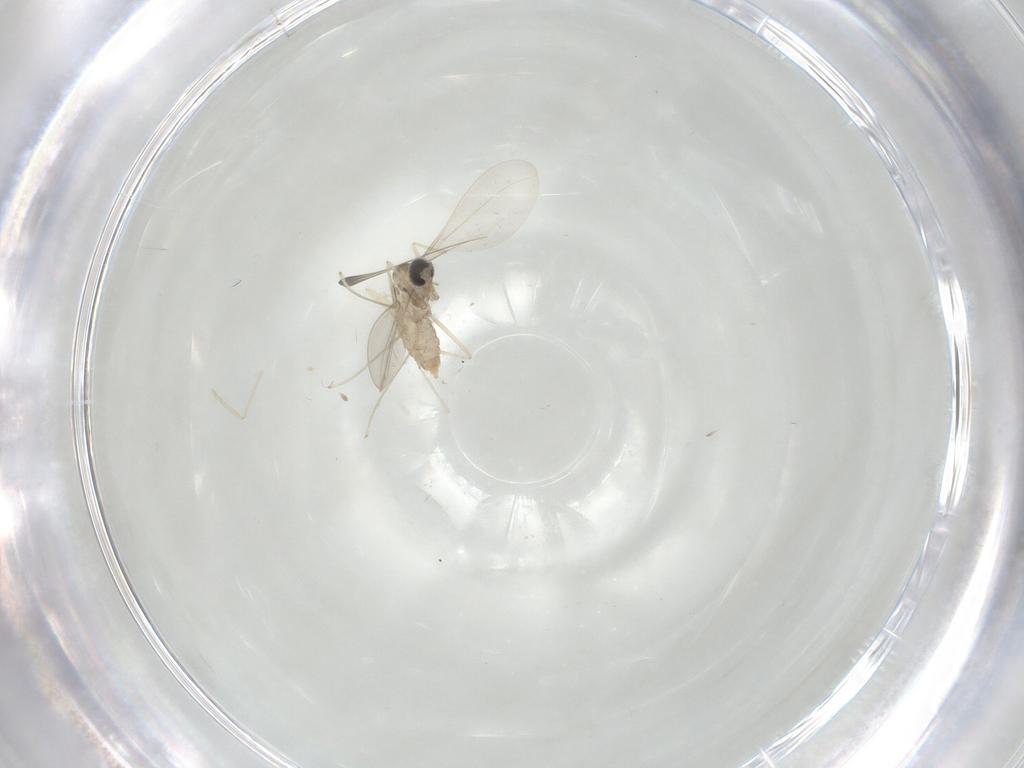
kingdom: Animalia
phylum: Arthropoda
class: Insecta
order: Diptera
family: Cecidomyiidae
